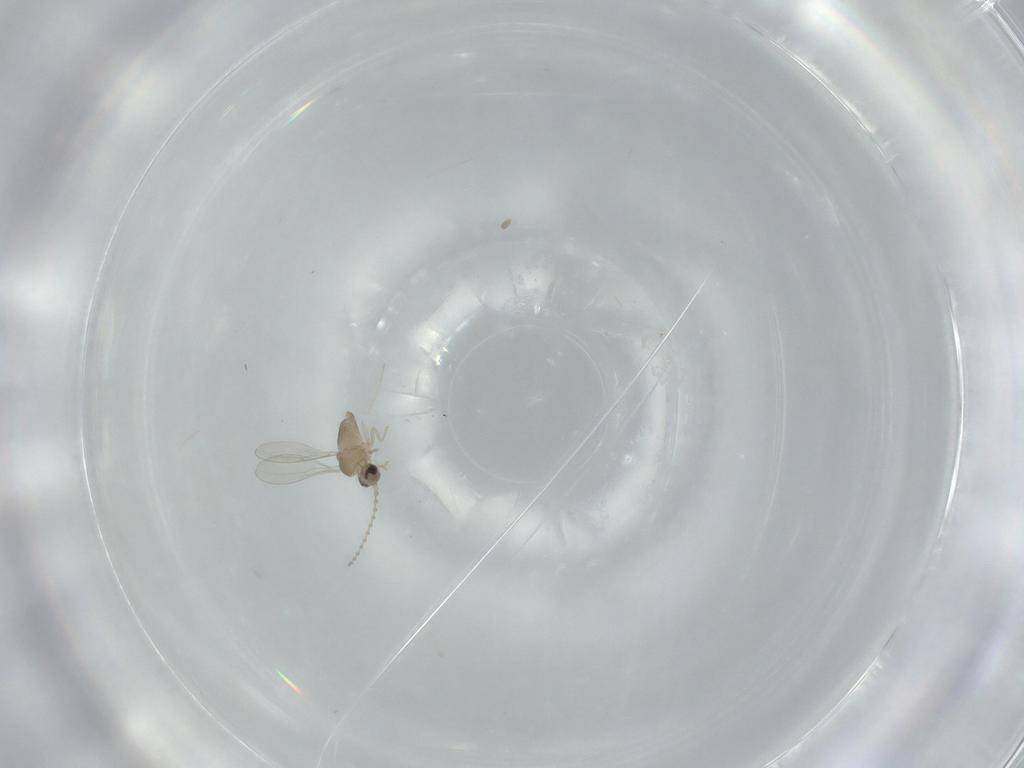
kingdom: Animalia
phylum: Arthropoda
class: Insecta
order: Diptera
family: Cecidomyiidae
